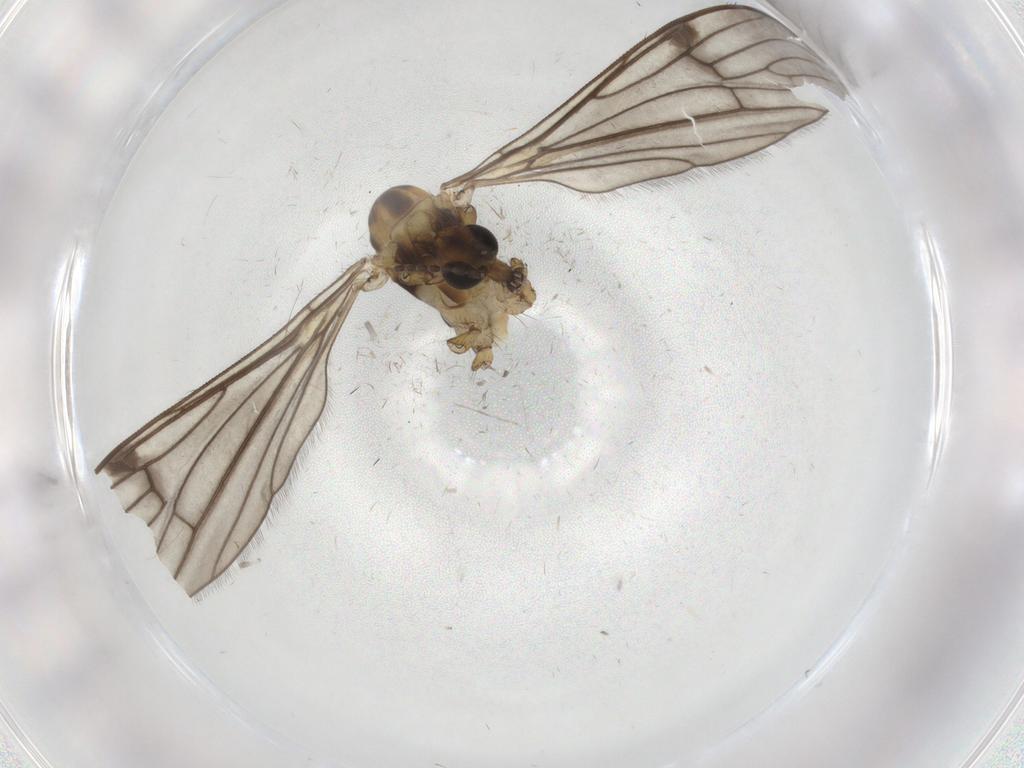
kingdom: Animalia
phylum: Arthropoda
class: Insecta
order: Diptera
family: Limoniidae
